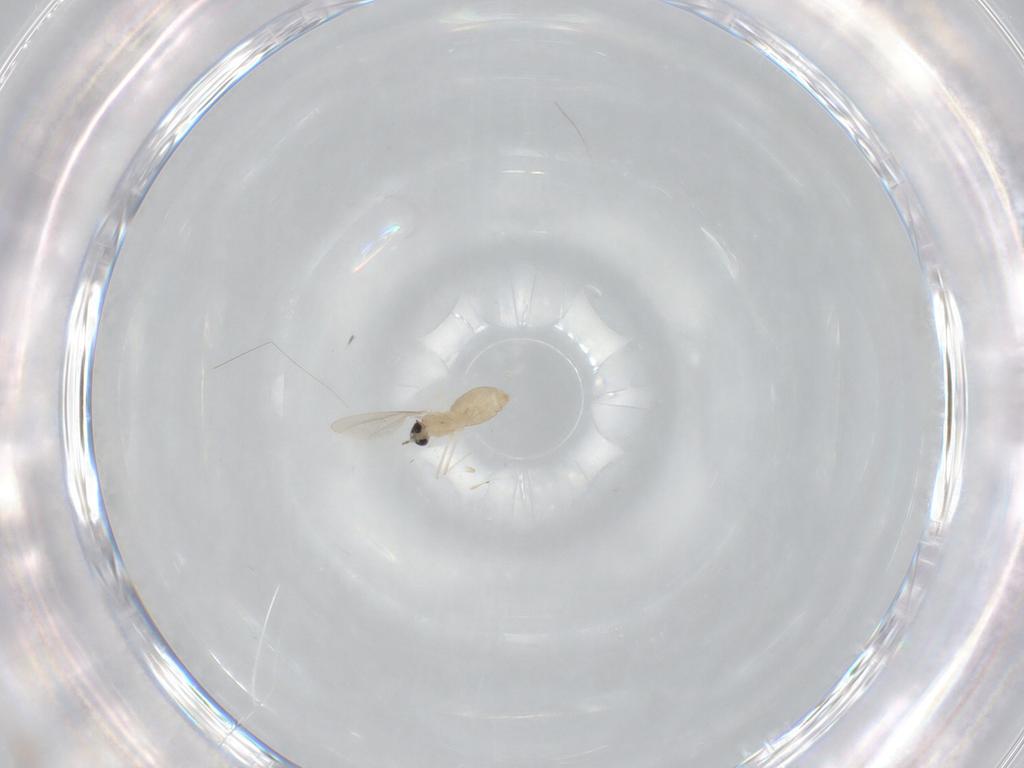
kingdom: Animalia
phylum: Arthropoda
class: Insecta
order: Diptera
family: Cecidomyiidae
